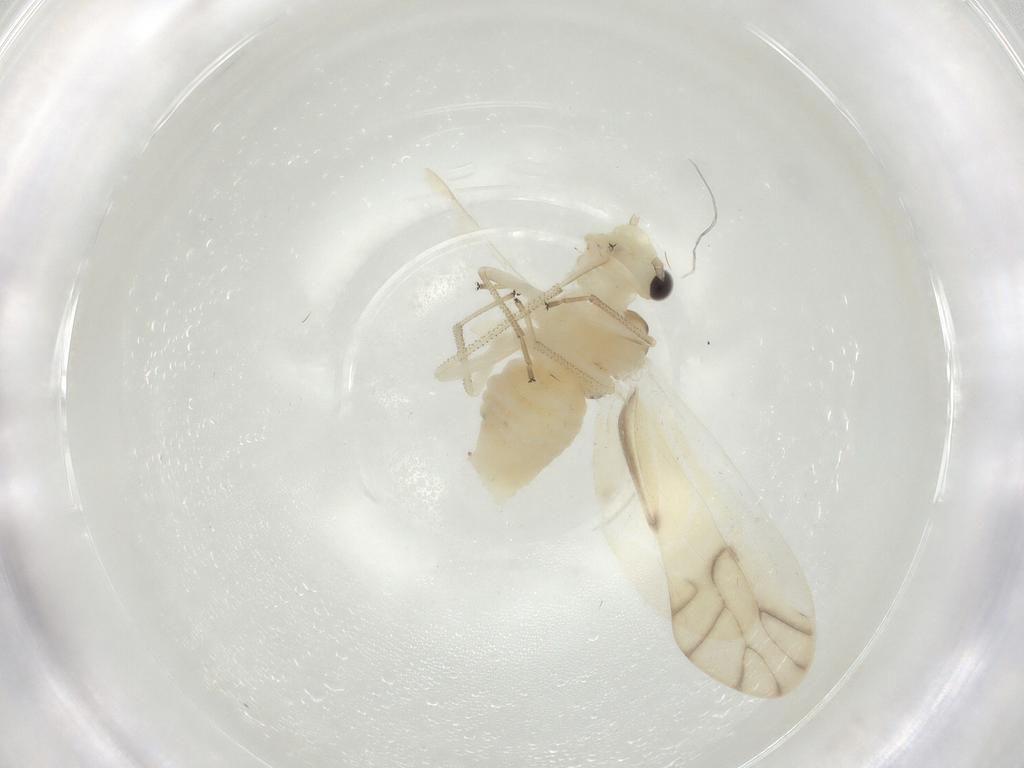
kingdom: Animalia
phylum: Arthropoda
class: Insecta
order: Psocodea
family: Caeciliusidae
